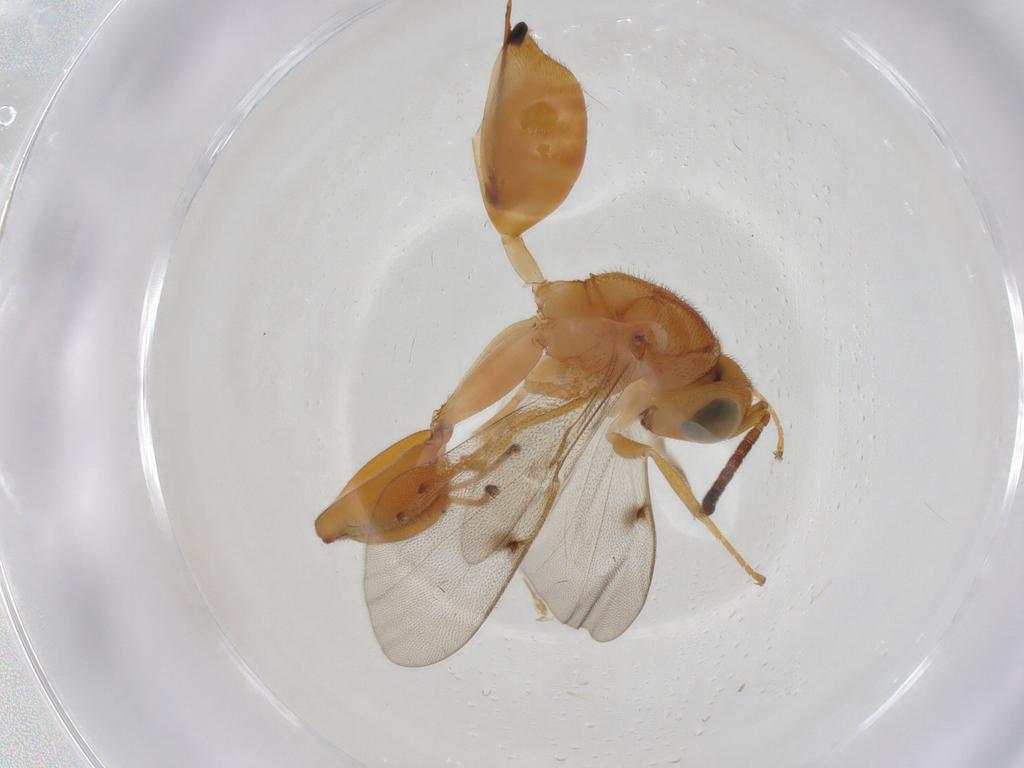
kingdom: Animalia
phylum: Arthropoda
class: Insecta
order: Hymenoptera
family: Chalcididae
